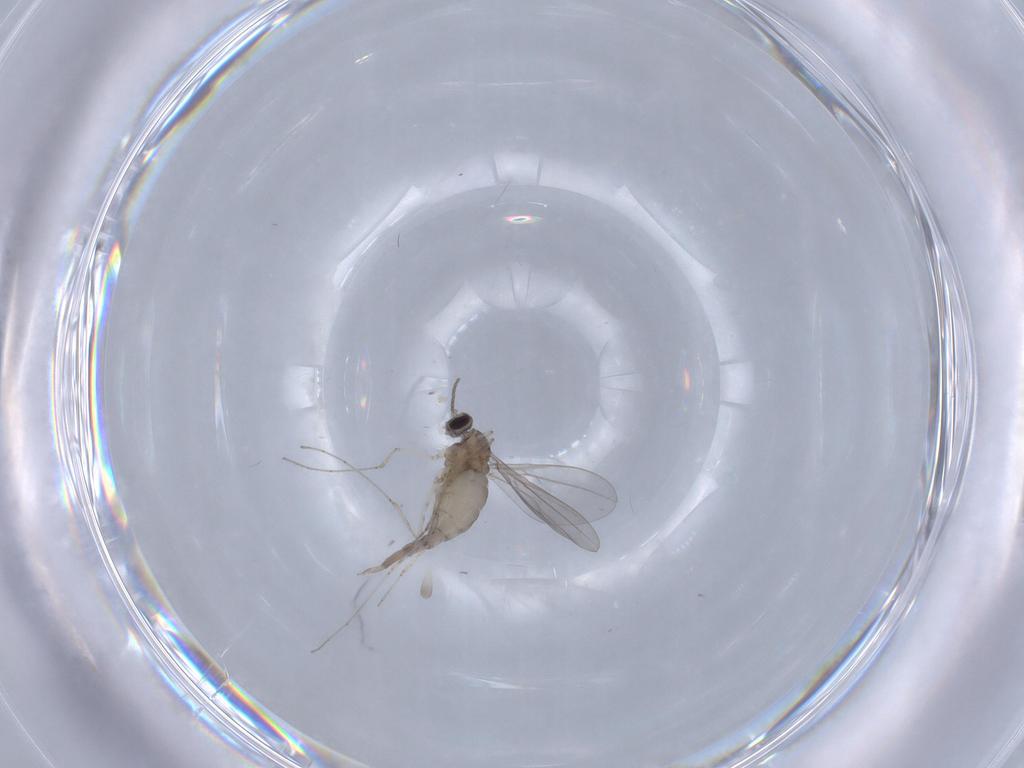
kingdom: Animalia
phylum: Arthropoda
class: Insecta
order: Diptera
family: Cecidomyiidae
